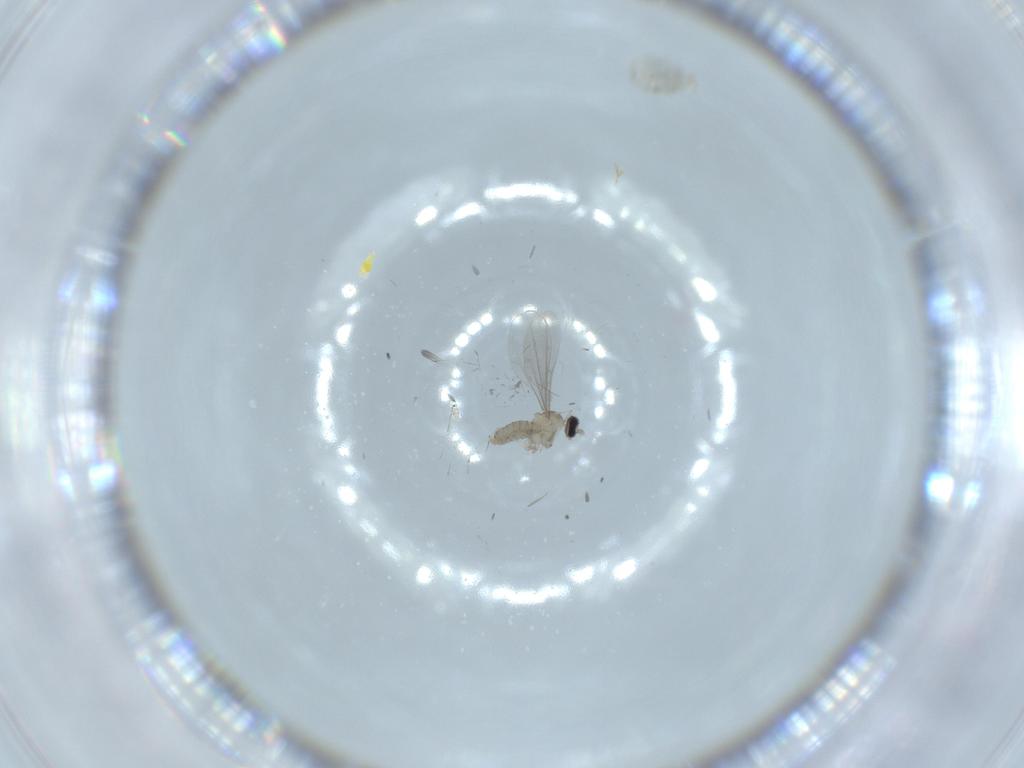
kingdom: Animalia
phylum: Arthropoda
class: Insecta
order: Diptera
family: Cecidomyiidae
